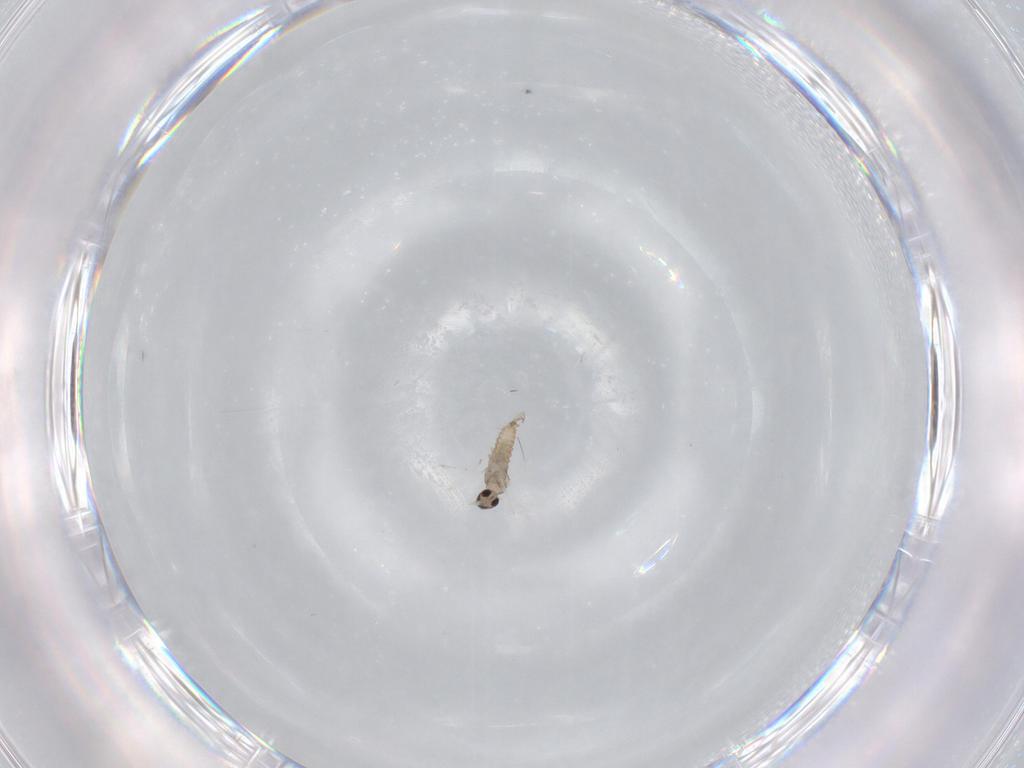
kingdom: Animalia
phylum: Arthropoda
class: Insecta
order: Diptera
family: Cecidomyiidae
